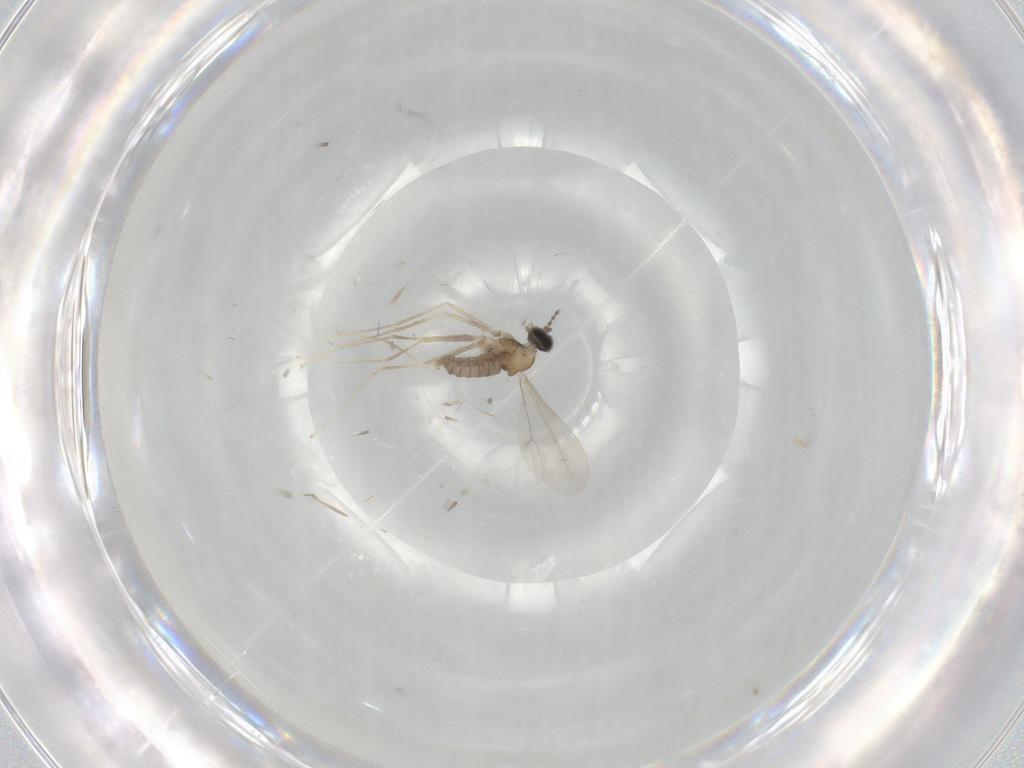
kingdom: Animalia
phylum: Arthropoda
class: Insecta
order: Diptera
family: Cecidomyiidae
